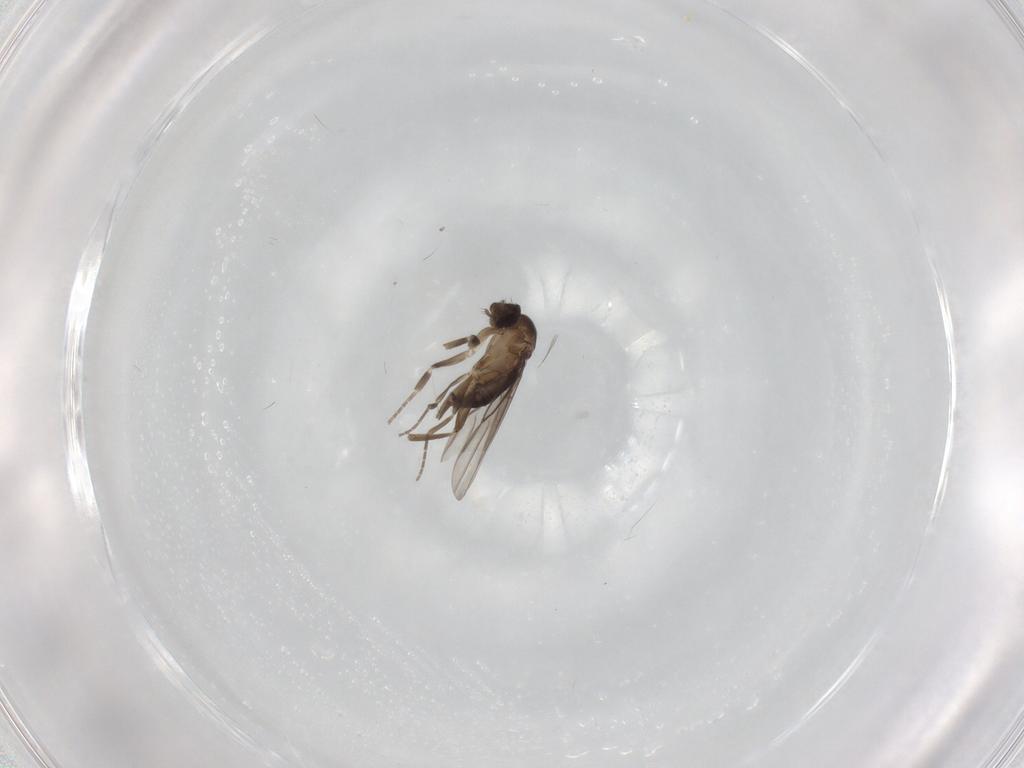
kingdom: Animalia
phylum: Arthropoda
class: Insecta
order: Diptera
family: Phoridae
